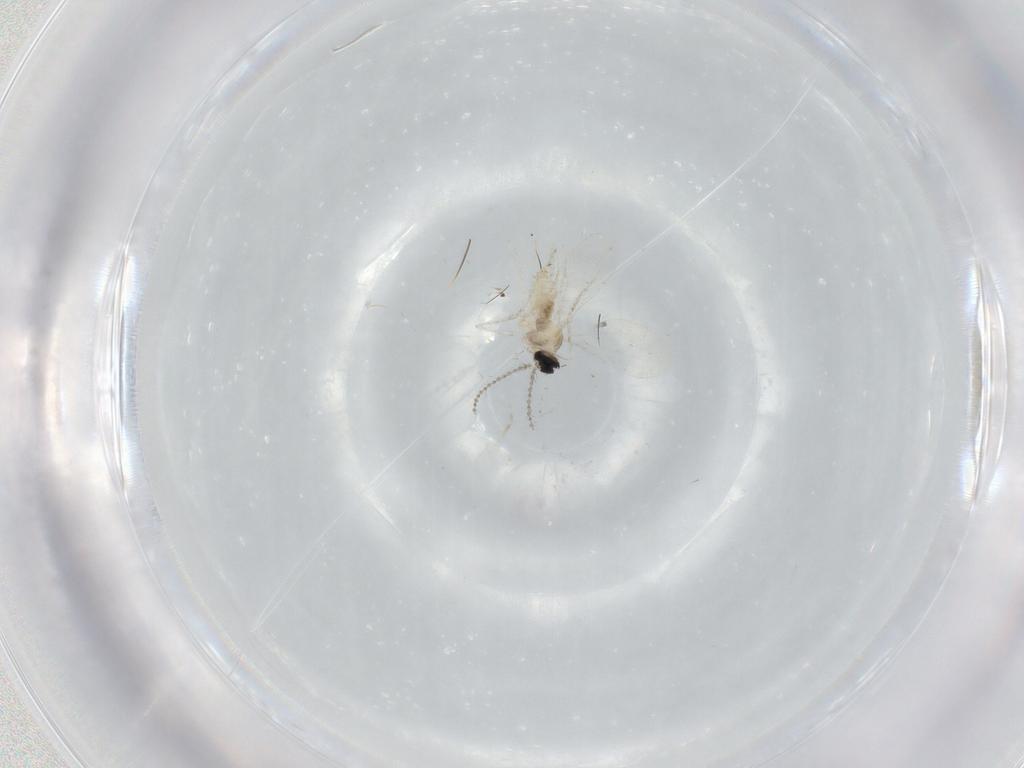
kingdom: Animalia
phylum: Arthropoda
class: Insecta
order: Diptera
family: Cecidomyiidae
